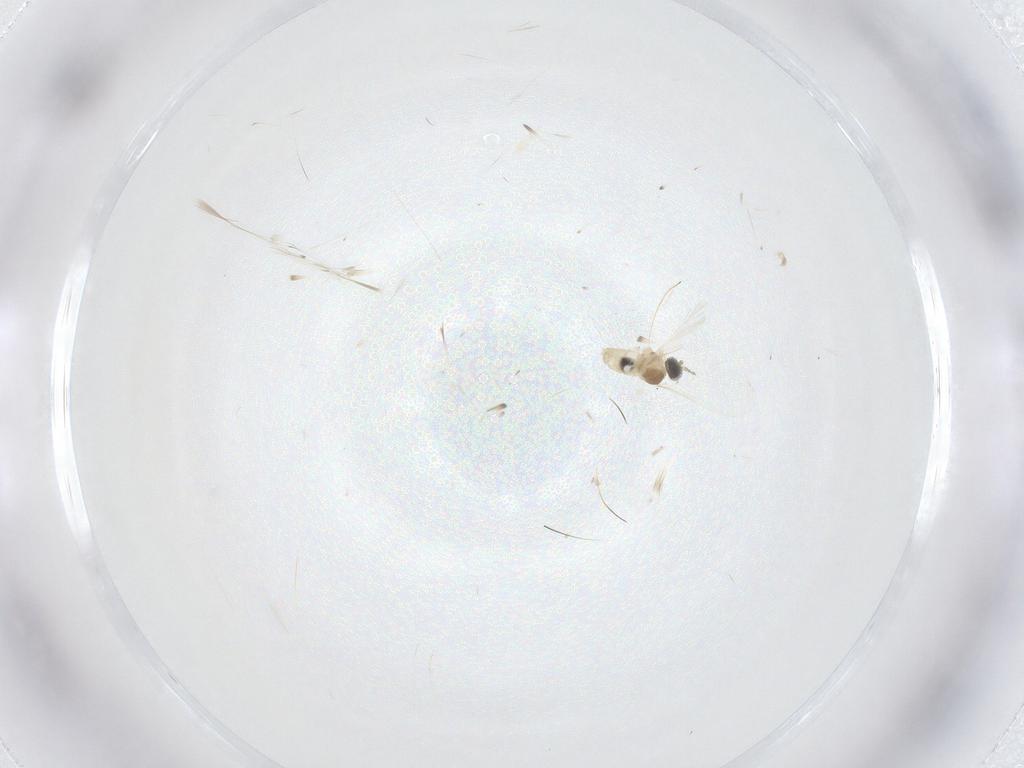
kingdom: Animalia
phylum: Arthropoda
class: Insecta
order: Diptera
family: Cecidomyiidae
